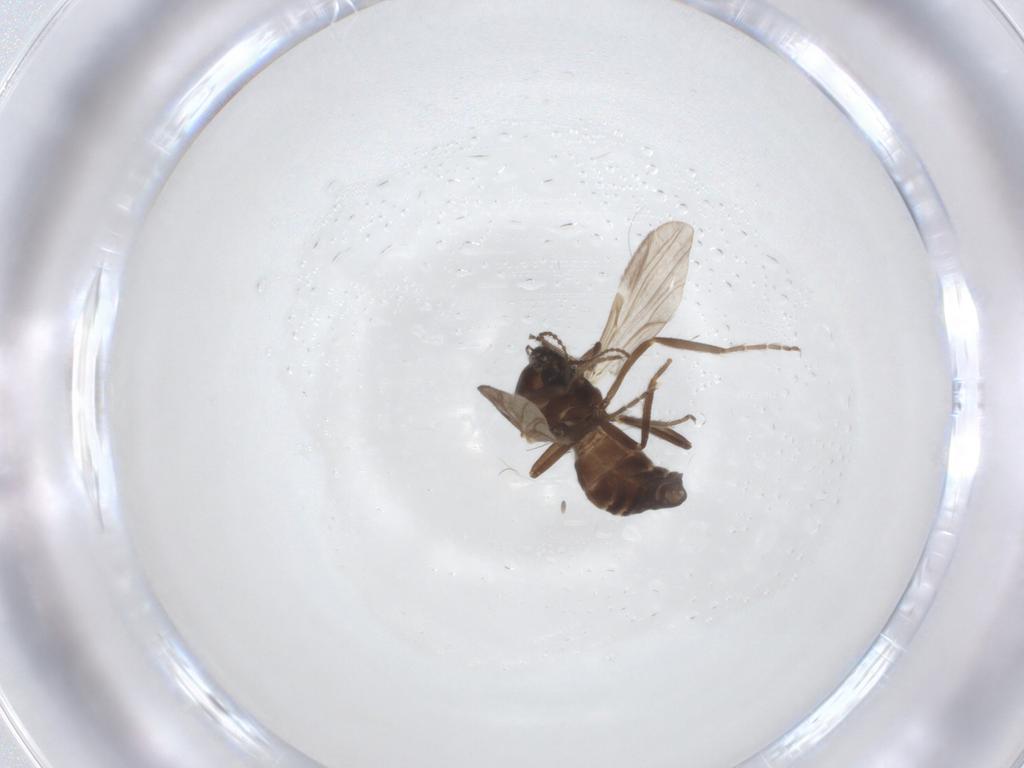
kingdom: Animalia
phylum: Arthropoda
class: Insecta
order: Diptera
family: Ceratopogonidae
